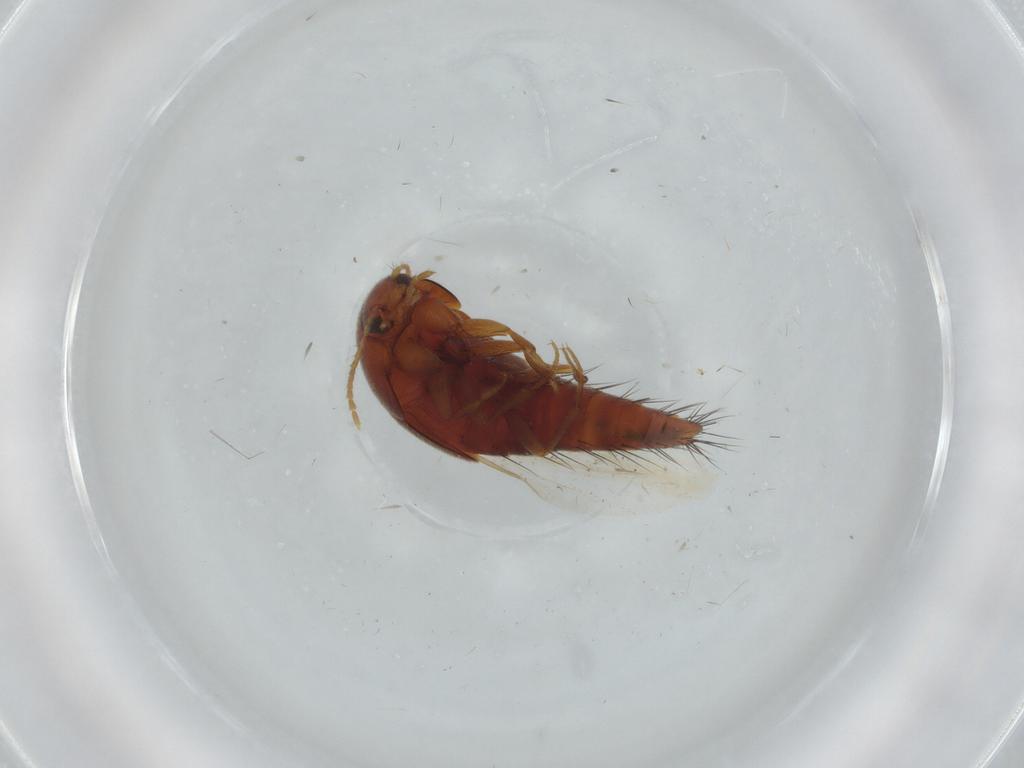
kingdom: Animalia
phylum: Arthropoda
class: Insecta
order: Coleoptera
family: Staphylinidae
